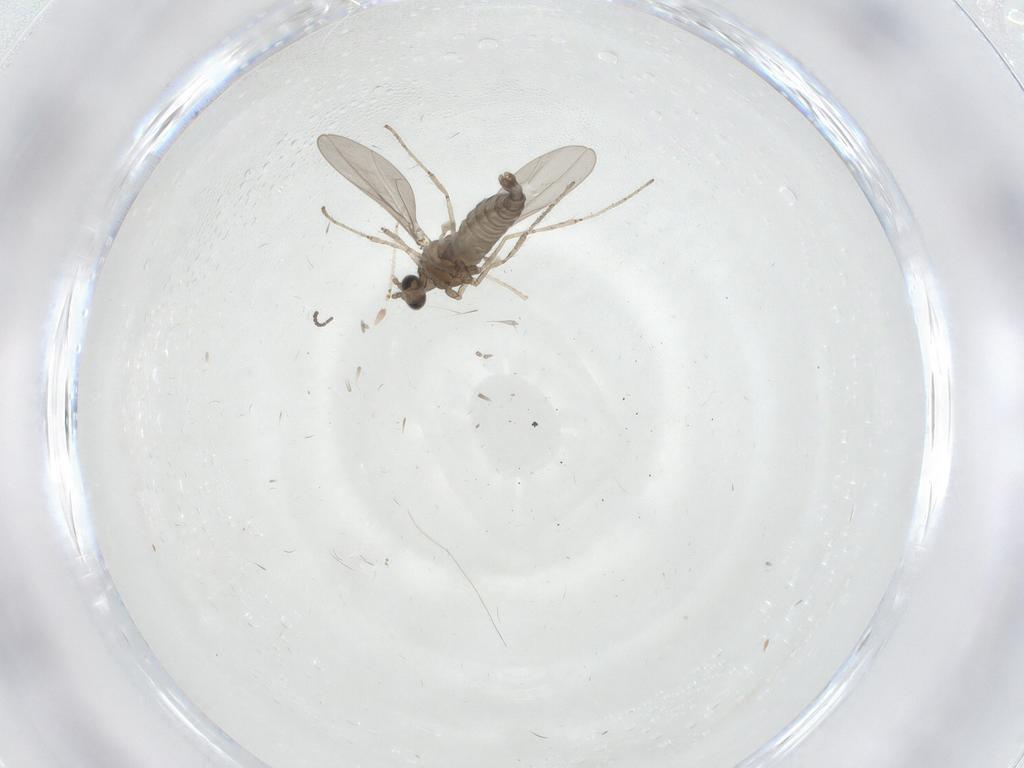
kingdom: Animalia
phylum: Arthropoda
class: Insecta
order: Diptera
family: Cecidomyiidae
